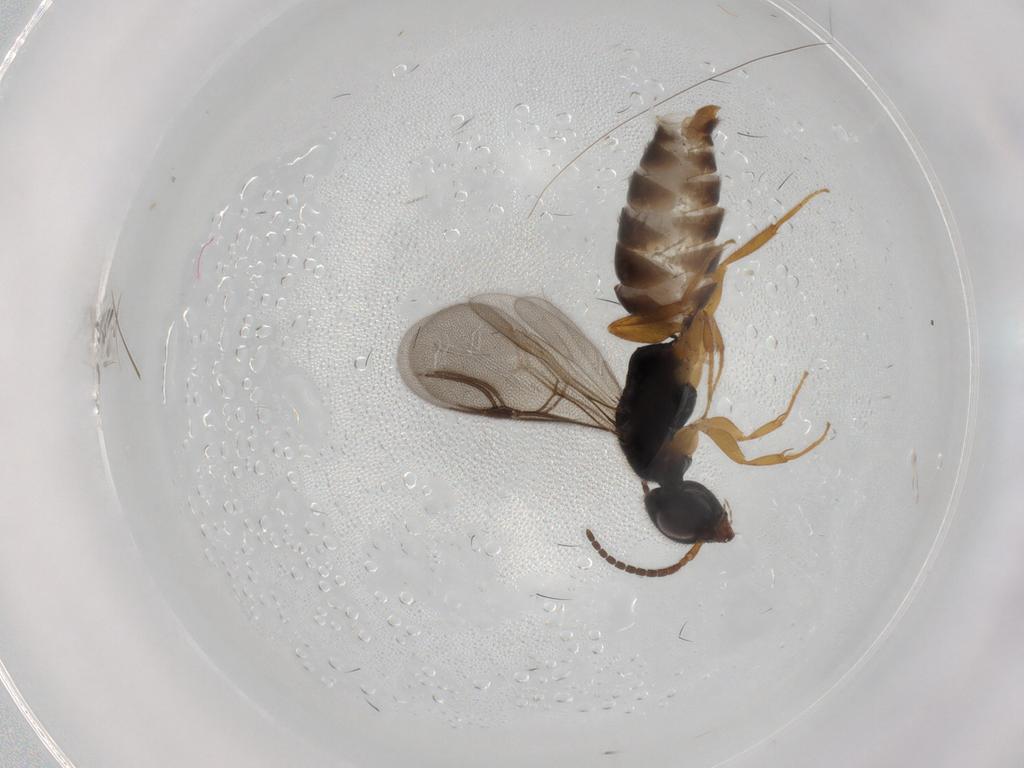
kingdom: Animalia
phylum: Arthropoda
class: Insecta
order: Hymenoptera
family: Bethylidae
